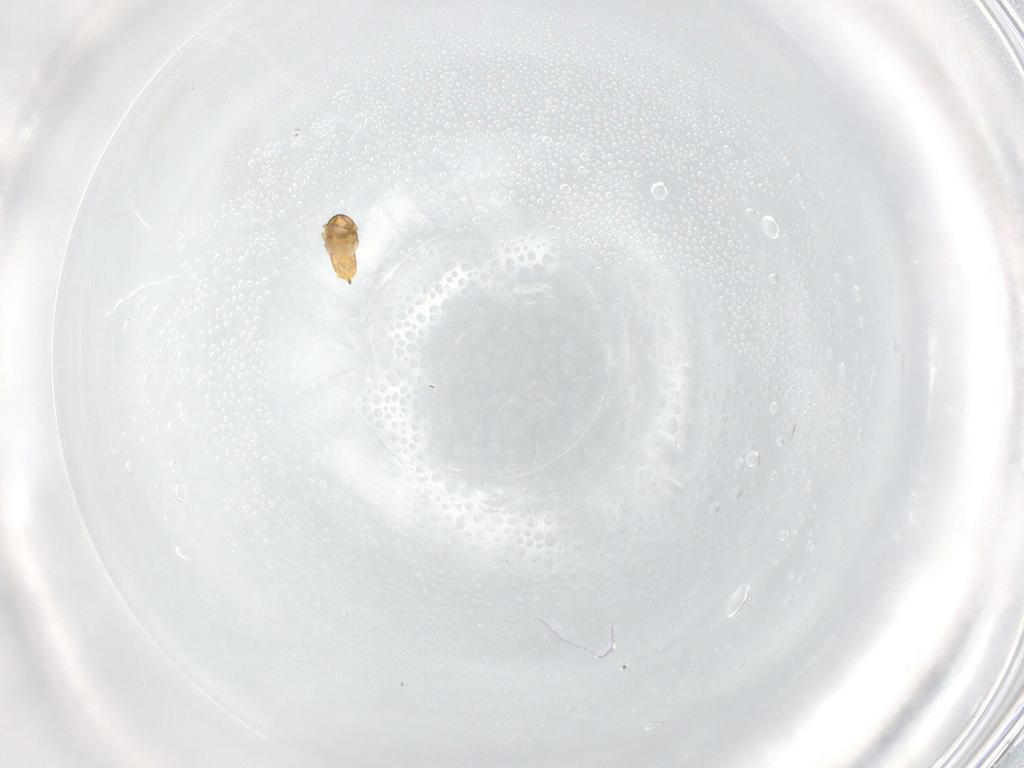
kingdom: Animalia
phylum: Arthropoda
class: Insecta
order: Hymenoptera
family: Aphelinidae
